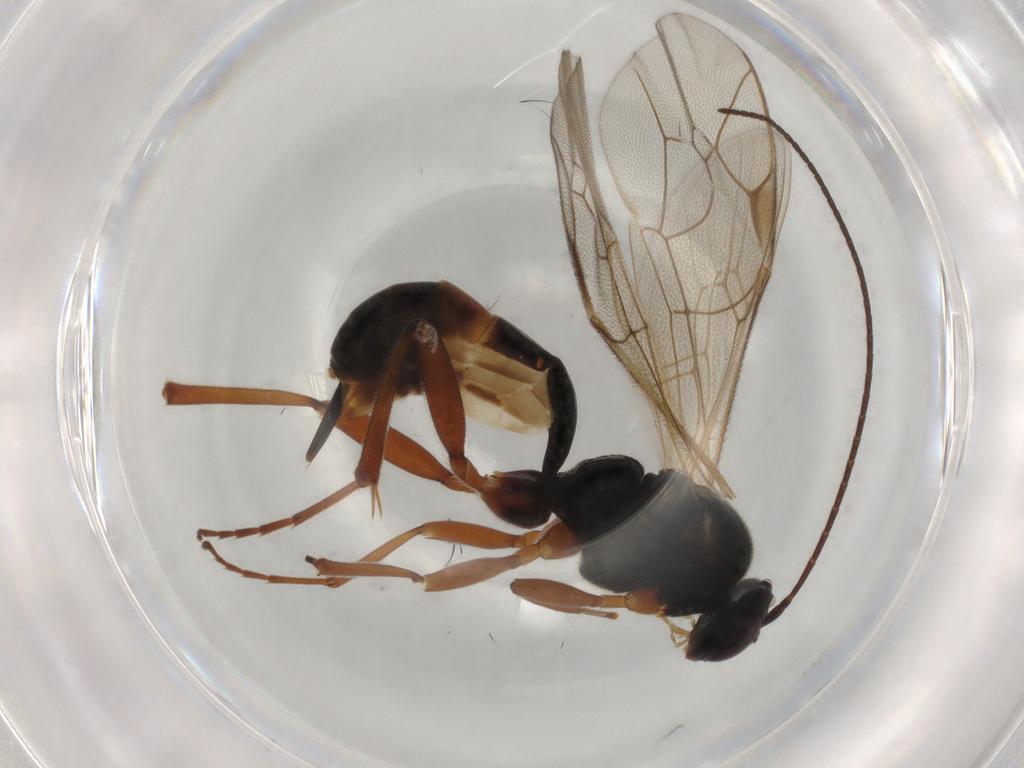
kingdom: Animalia
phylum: Arthropoda
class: Insecta
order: Hymenoptera
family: Ichneumonidae
